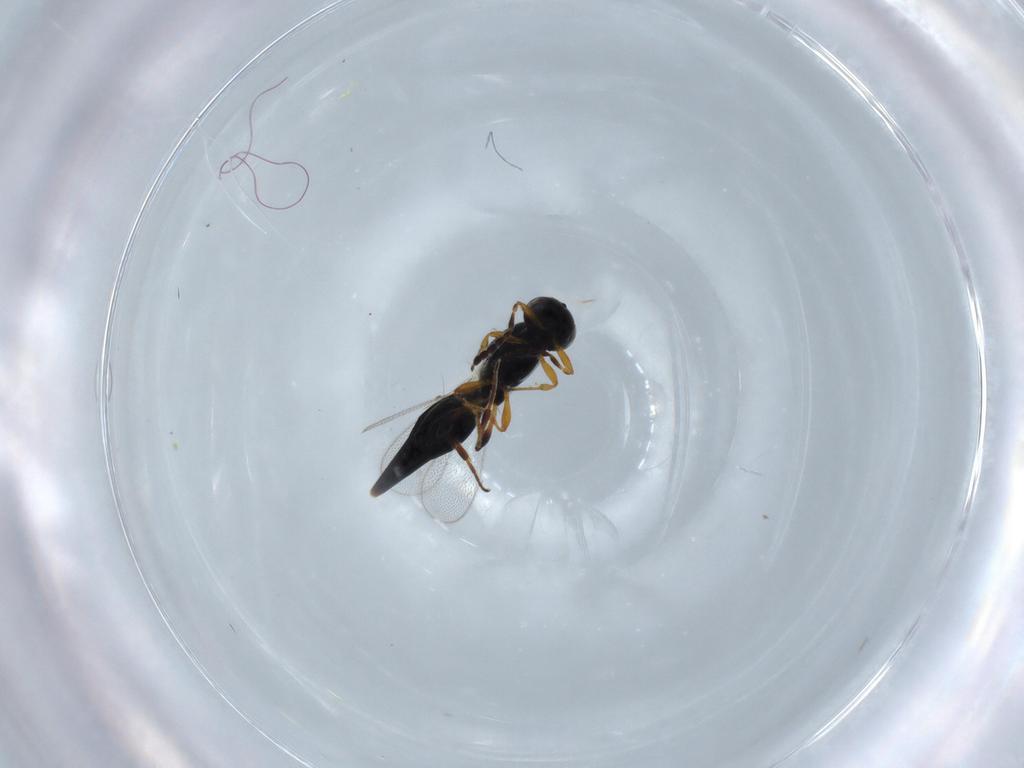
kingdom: Animalia
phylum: Arthropoda
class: Insecta
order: Hymenoptera
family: Platygastridae
